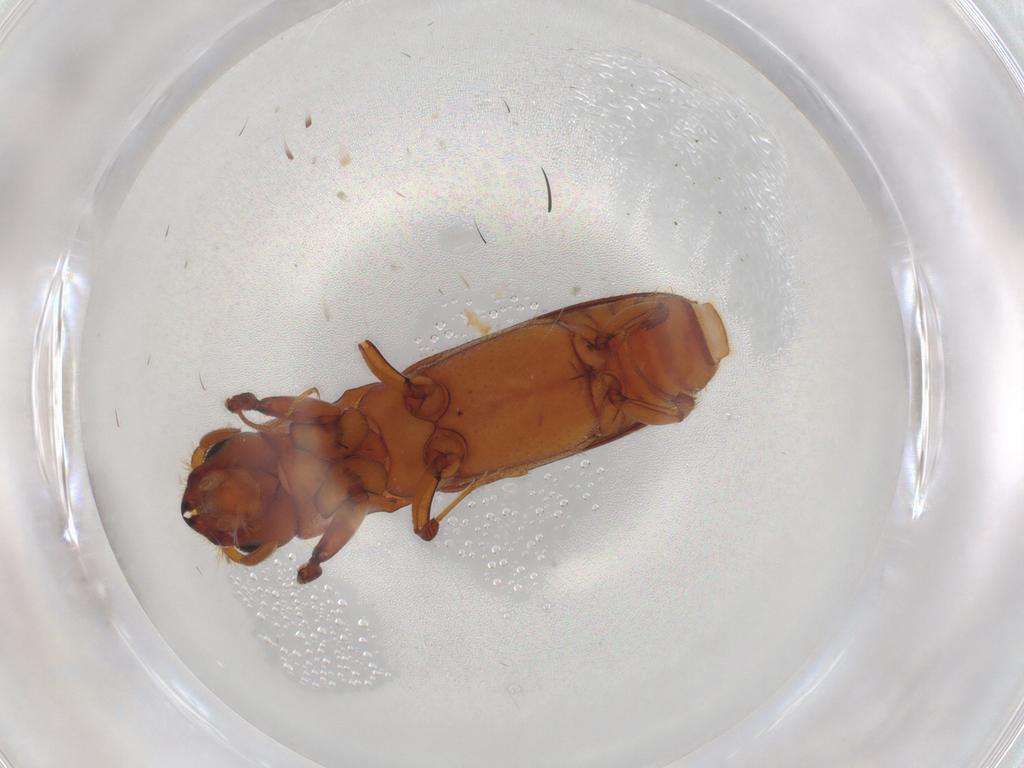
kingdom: Animalia
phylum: Arthropoda
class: Insecta
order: Coleoptera
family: Curculionidae
